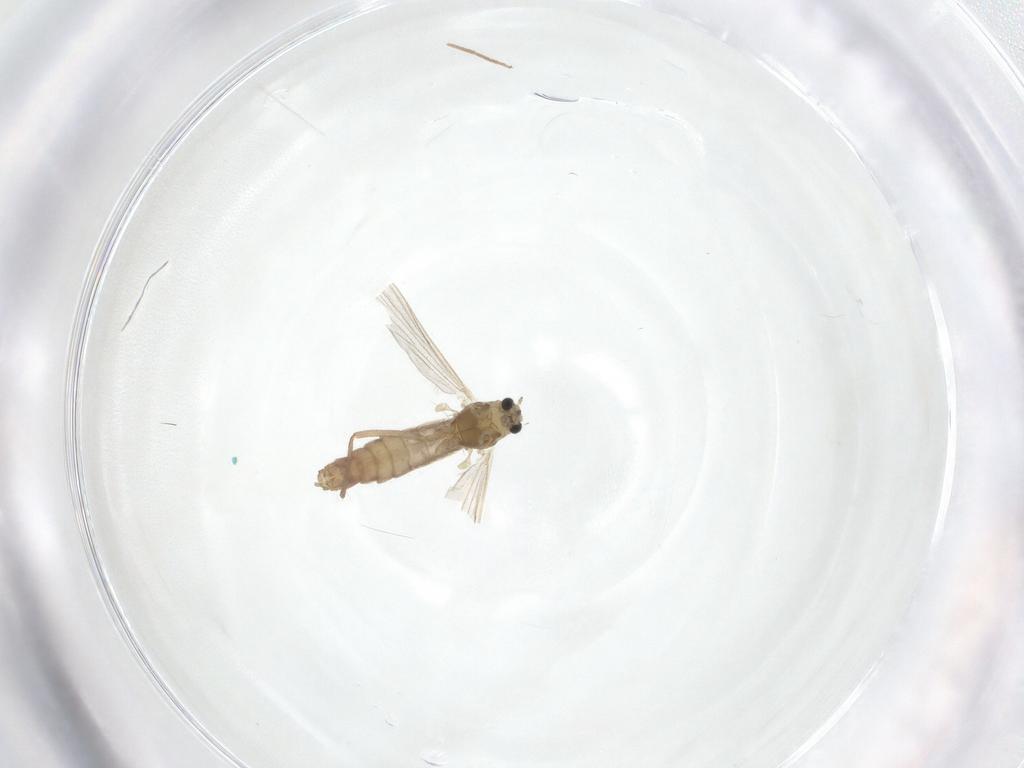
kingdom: Animalia
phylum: Arthropoda
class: Insecta
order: Diptera
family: Chironomidae
